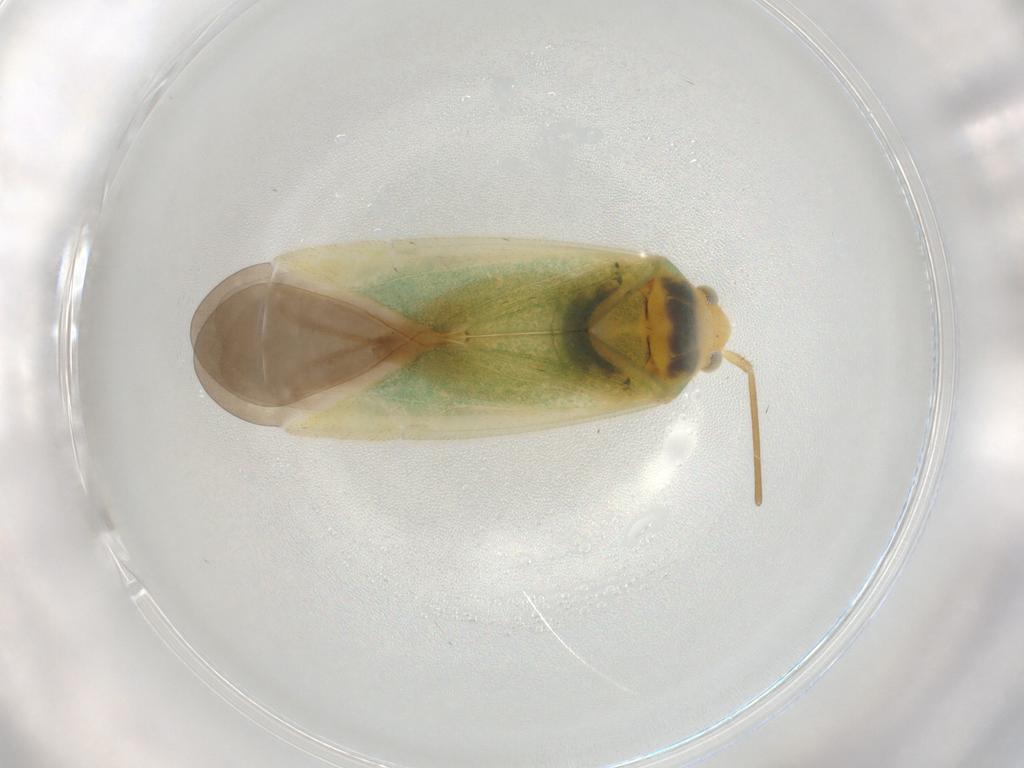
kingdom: Animalia
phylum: Arthropoda
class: Insecta
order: Hemiptera
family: Miridae
